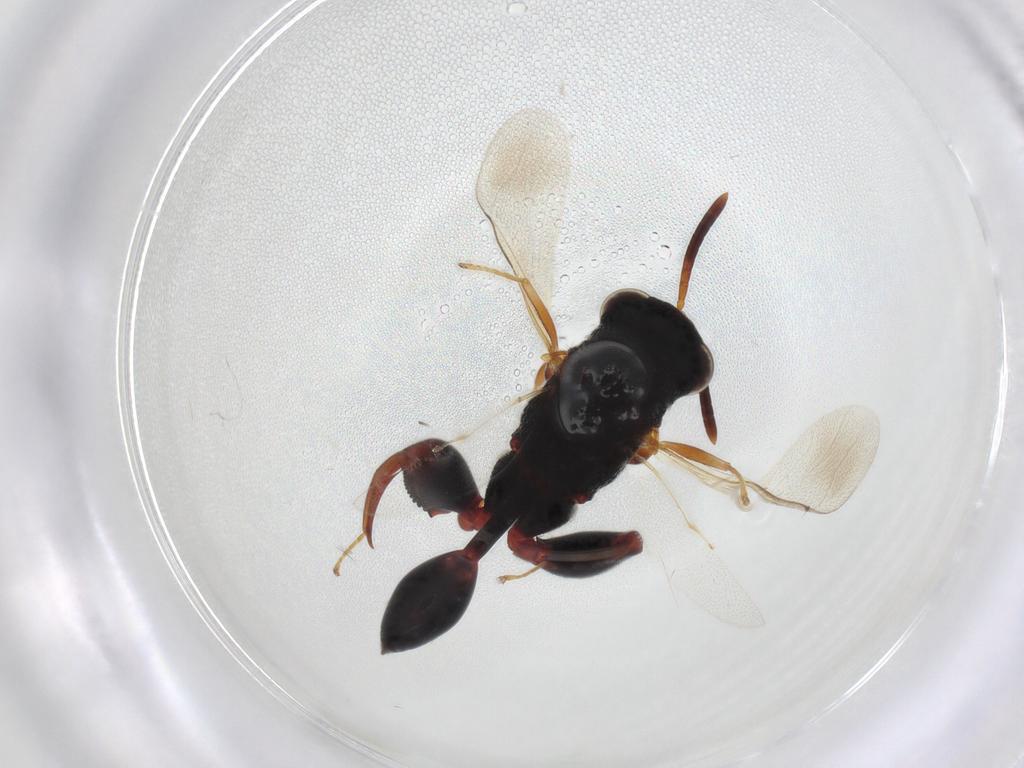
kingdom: Animalia
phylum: Arthropoda
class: Insecta
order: Hymenoptera
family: Chalcididae
